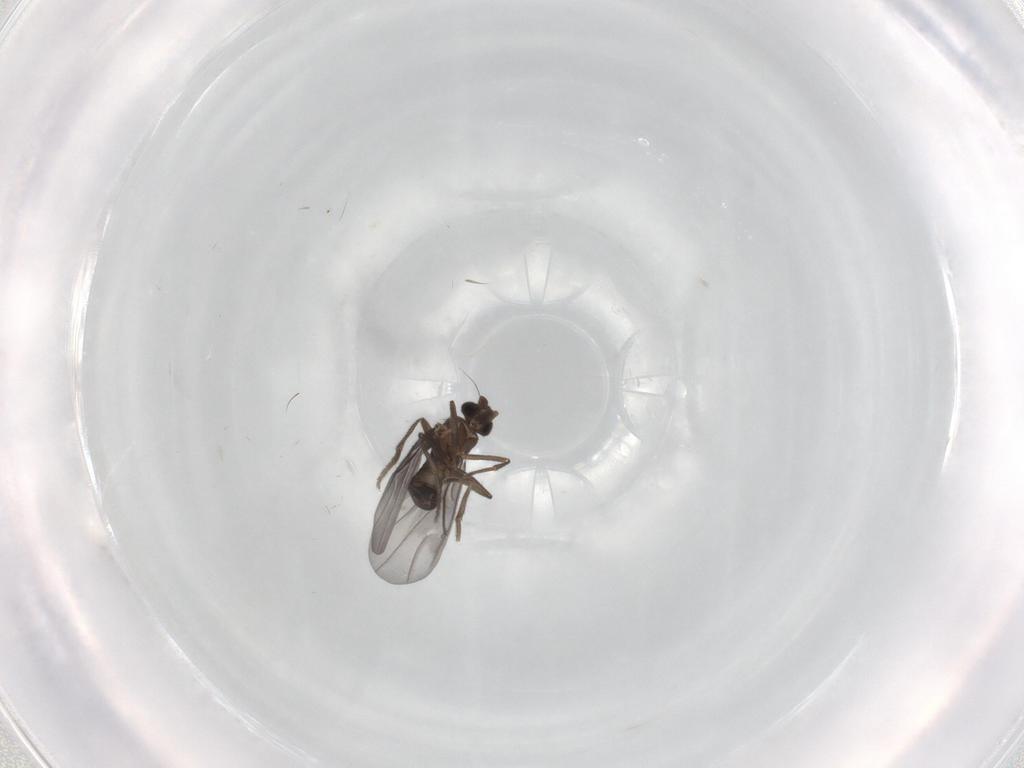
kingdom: Animalia
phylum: Arthropoda
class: Insecta
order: Diptera
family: Phoridae
